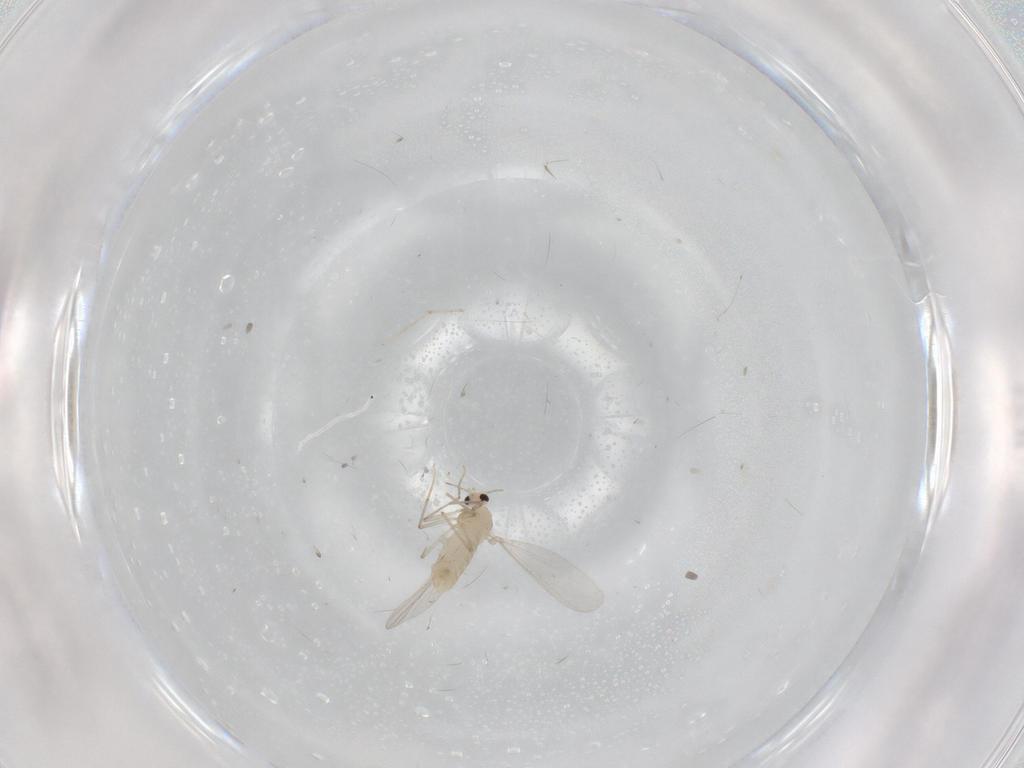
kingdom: Animalia
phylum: Arthropoda
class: Insecta
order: Diptera
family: Chironomidae
